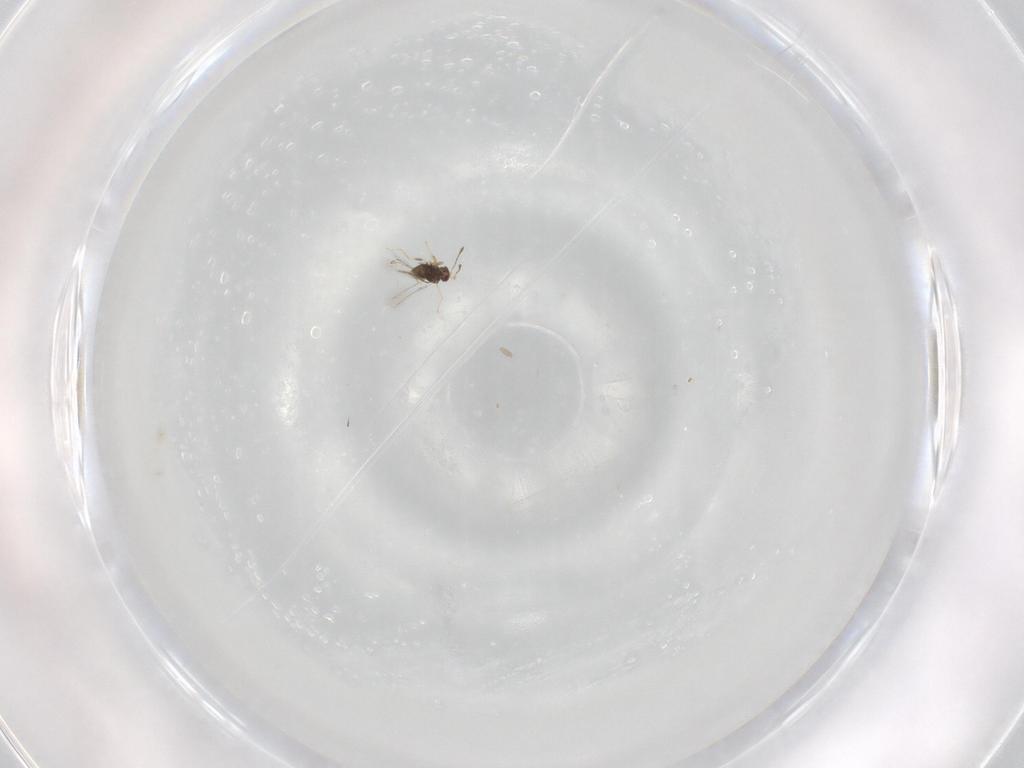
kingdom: Animalia
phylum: Arthropoda
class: Insecta
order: Hymenoptera
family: Mymaridae
